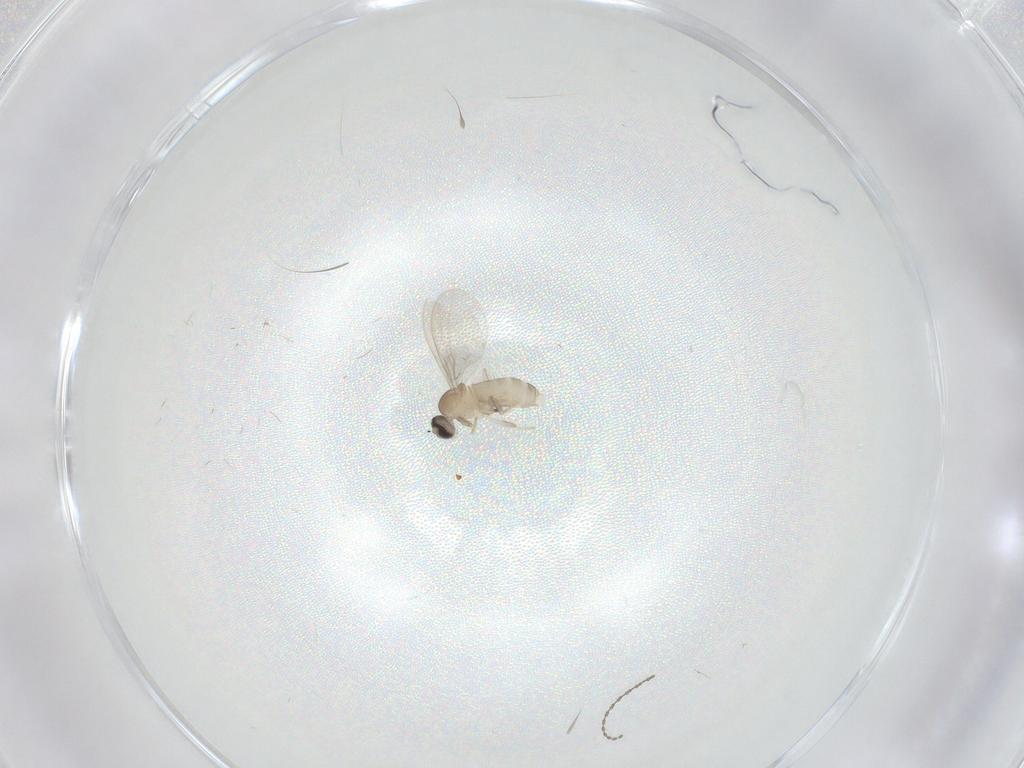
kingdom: Animalia
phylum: Arthropoda
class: Insecta
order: Diptera
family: Cecidomyiidae
